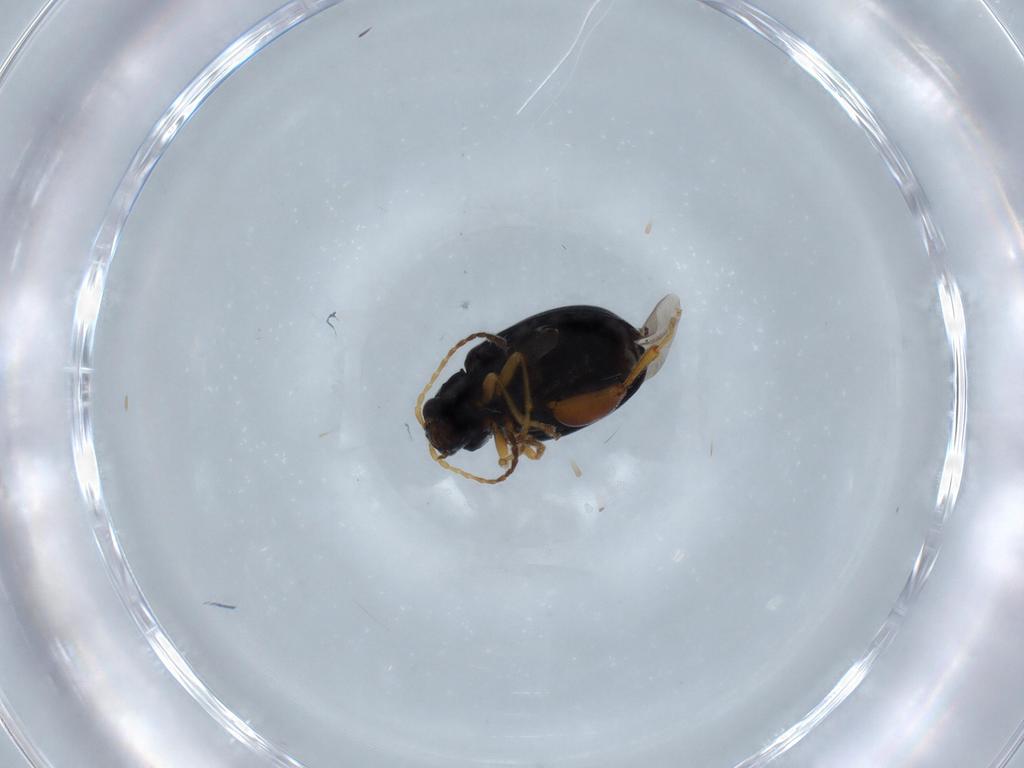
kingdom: Animalia
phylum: Arthropoda
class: Insecta
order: Coleoptera
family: Chrysomelidae
